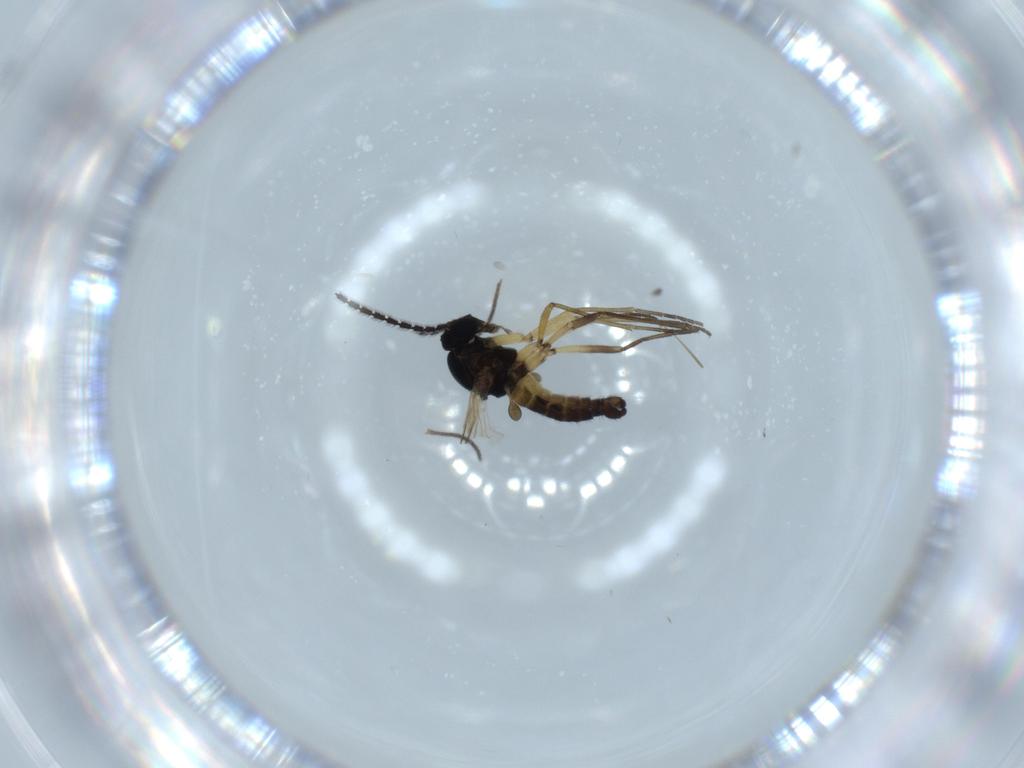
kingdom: Animalia
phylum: Arthropoda
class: Insecta
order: Diptera
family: Sciaridae
